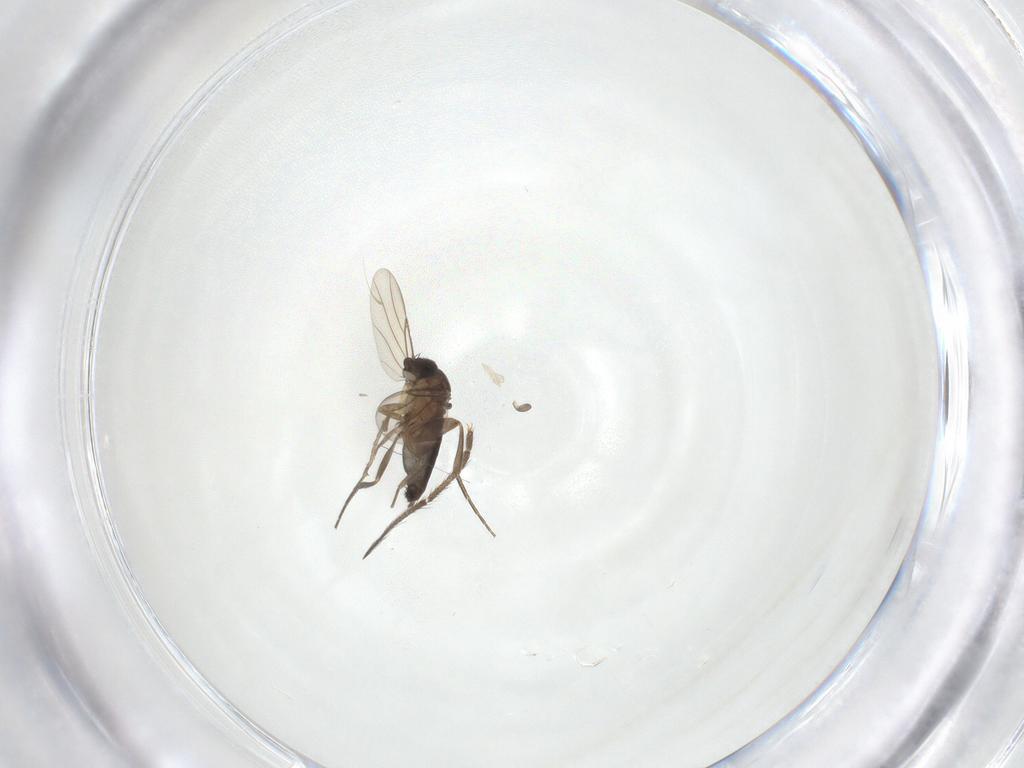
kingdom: Animalia
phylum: Arthropoda
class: Insecta
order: Diptera
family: Phoridae
